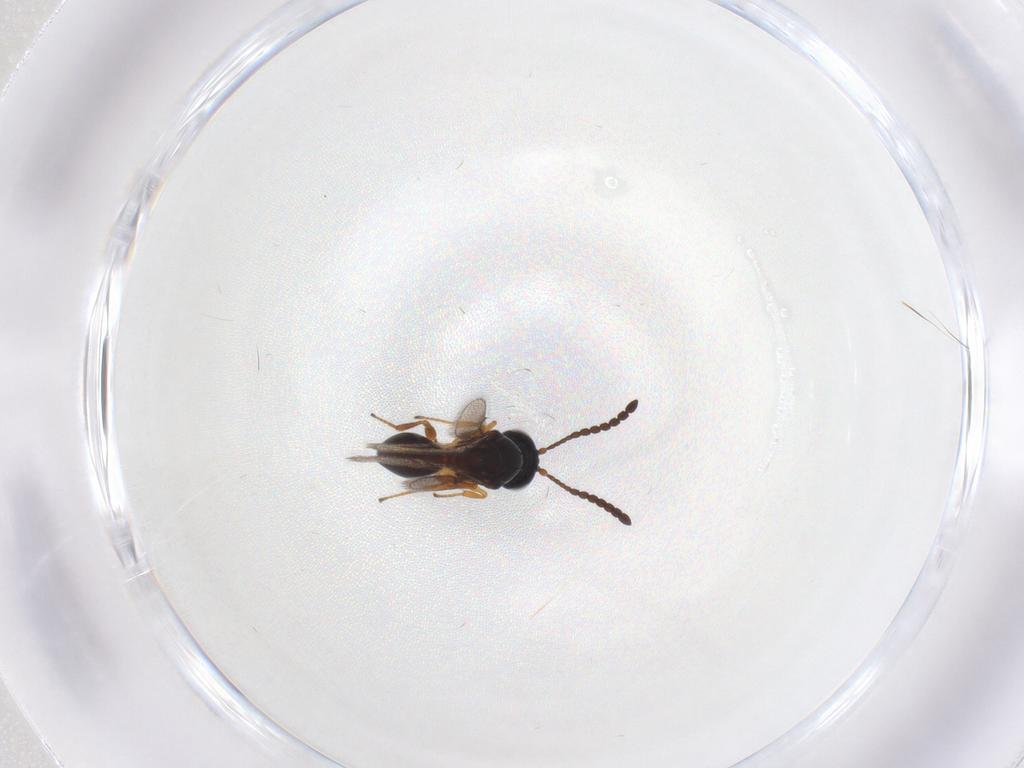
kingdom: Animalia
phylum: Arthropoda
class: Insecta
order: Hymenoptera
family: Figitidae
